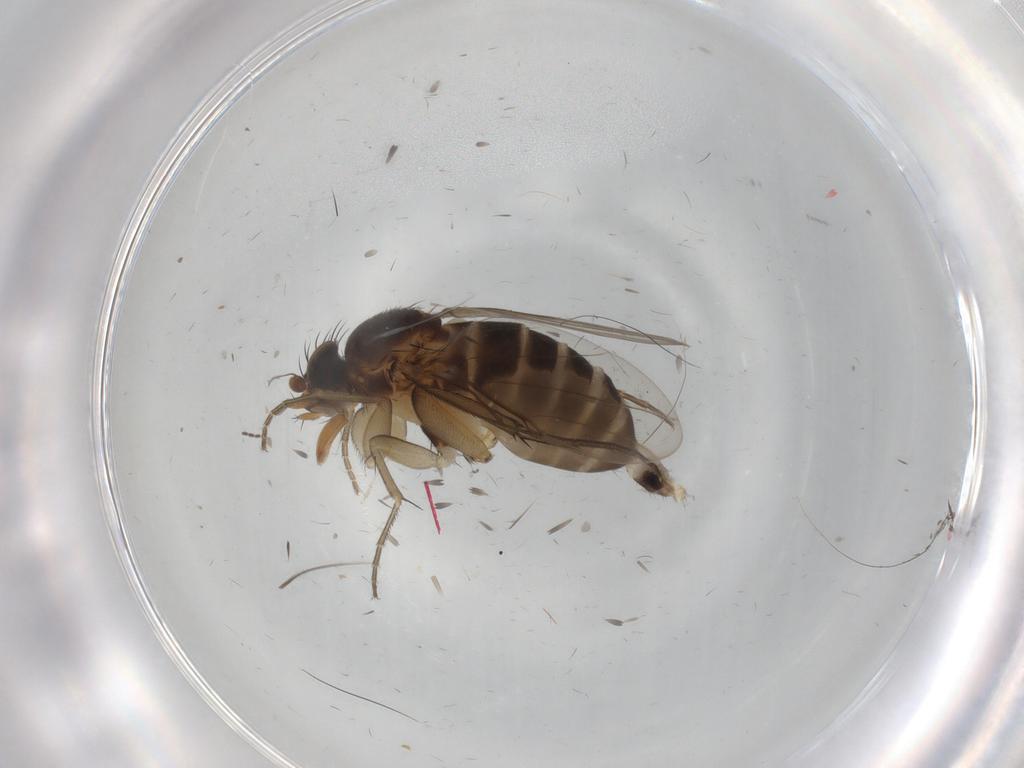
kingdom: Animalia
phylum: Arthropoda
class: Insecta
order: Diptera
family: Cecidomyiidae
